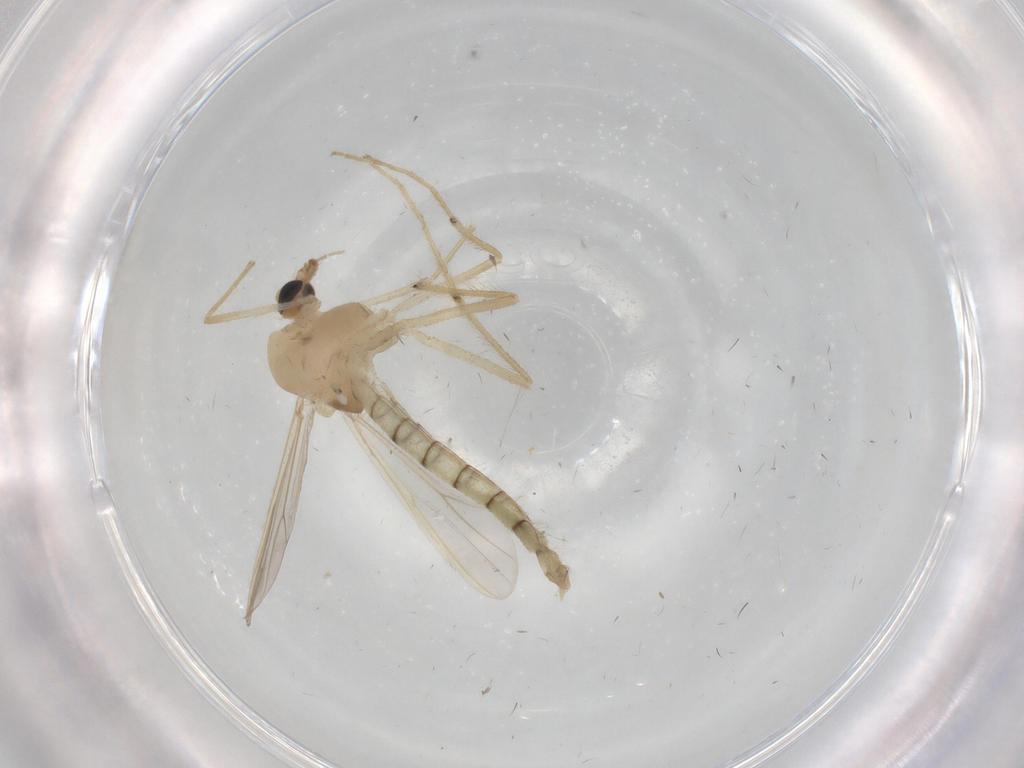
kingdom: Animalia
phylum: Arthropoda
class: Insecta
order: Diptera
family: Chironomidae
